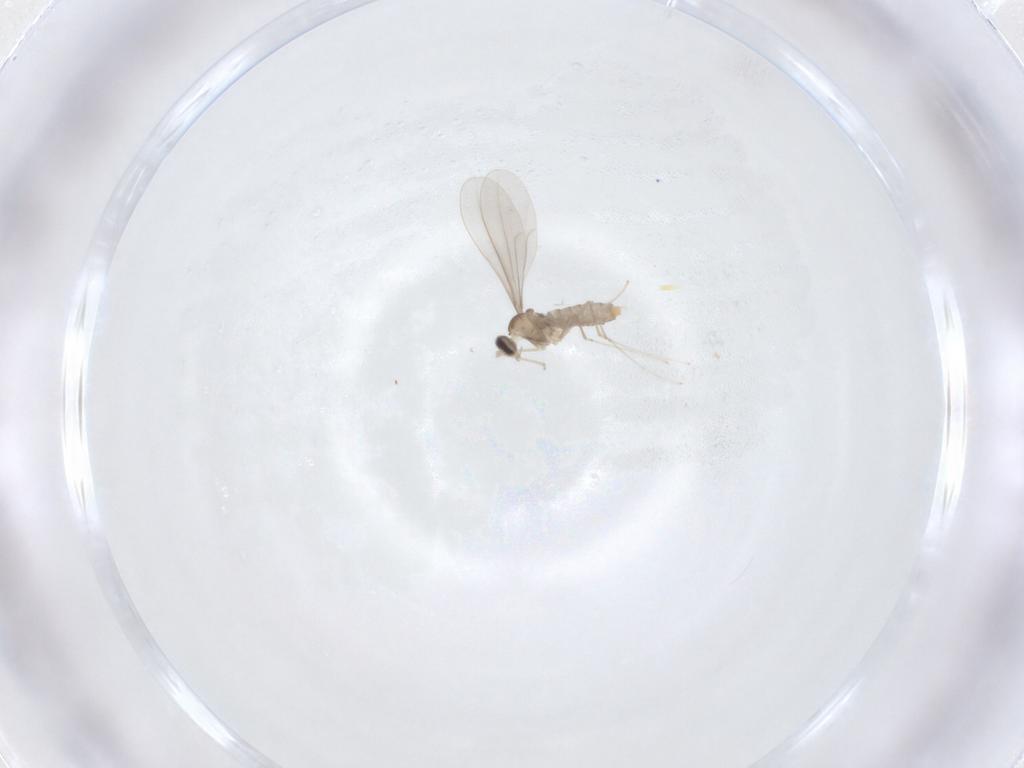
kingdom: Animalia
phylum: Arthropoda
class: Insecta
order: Diptera
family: Cecidomyiidae
